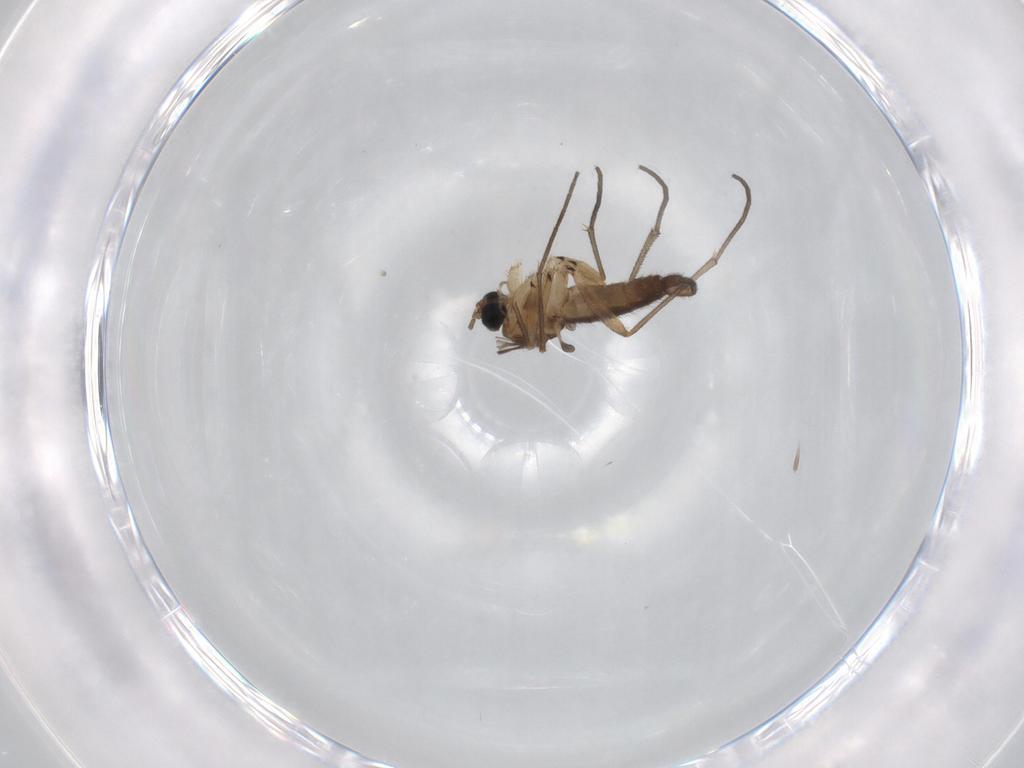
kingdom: Animalia
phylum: Arthropoda
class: Insecta
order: Diptera
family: Sciaridae
